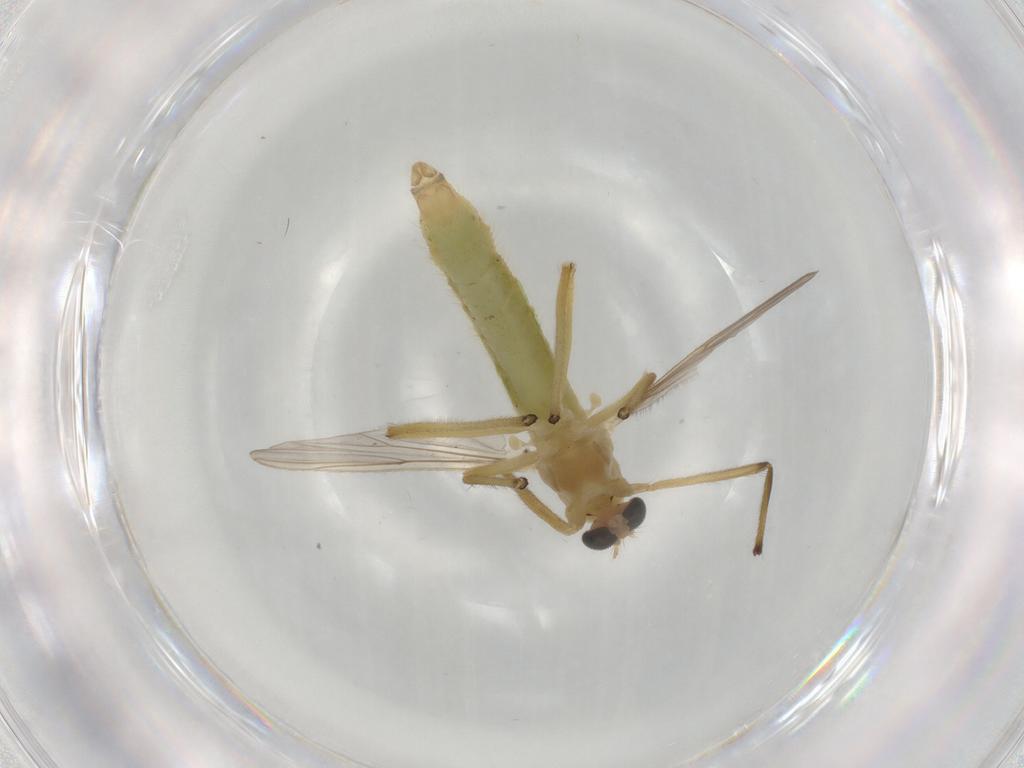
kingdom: Animalia
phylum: Arthropoda
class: Insecta
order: Diptera
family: Chironomidae
